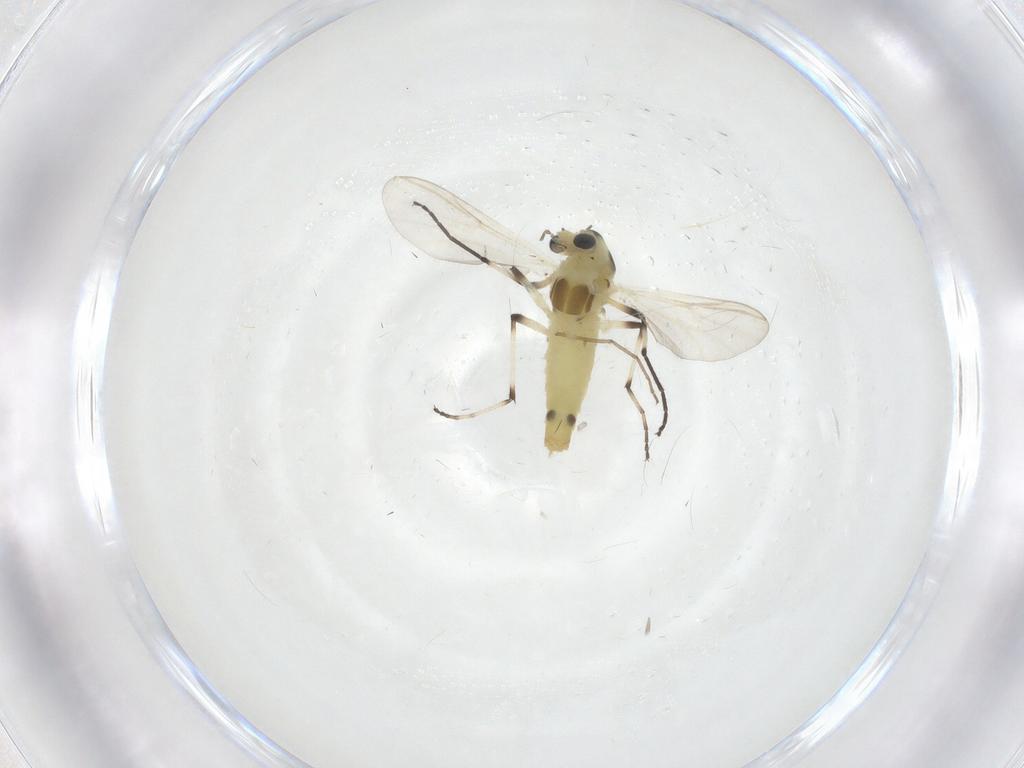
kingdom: Animalia
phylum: Arthropoda
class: Insecta
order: Diptera
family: Chironomidae
